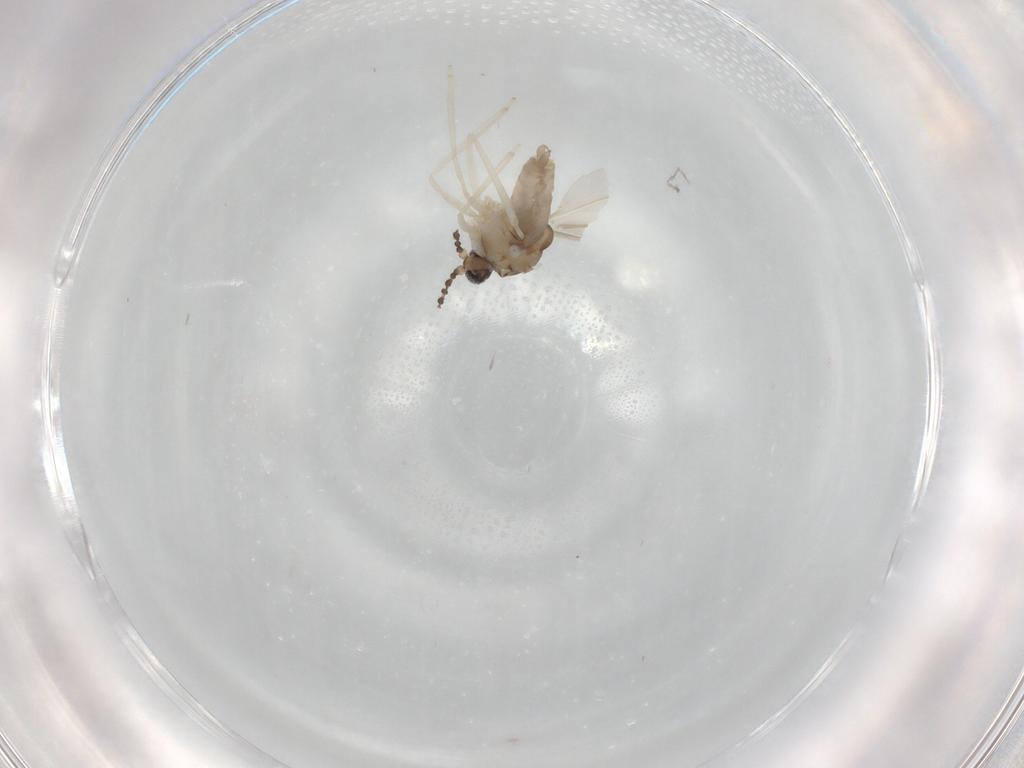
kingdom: Animalia
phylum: Arthropoda
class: Insecta
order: Diptera
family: Limoniidae
